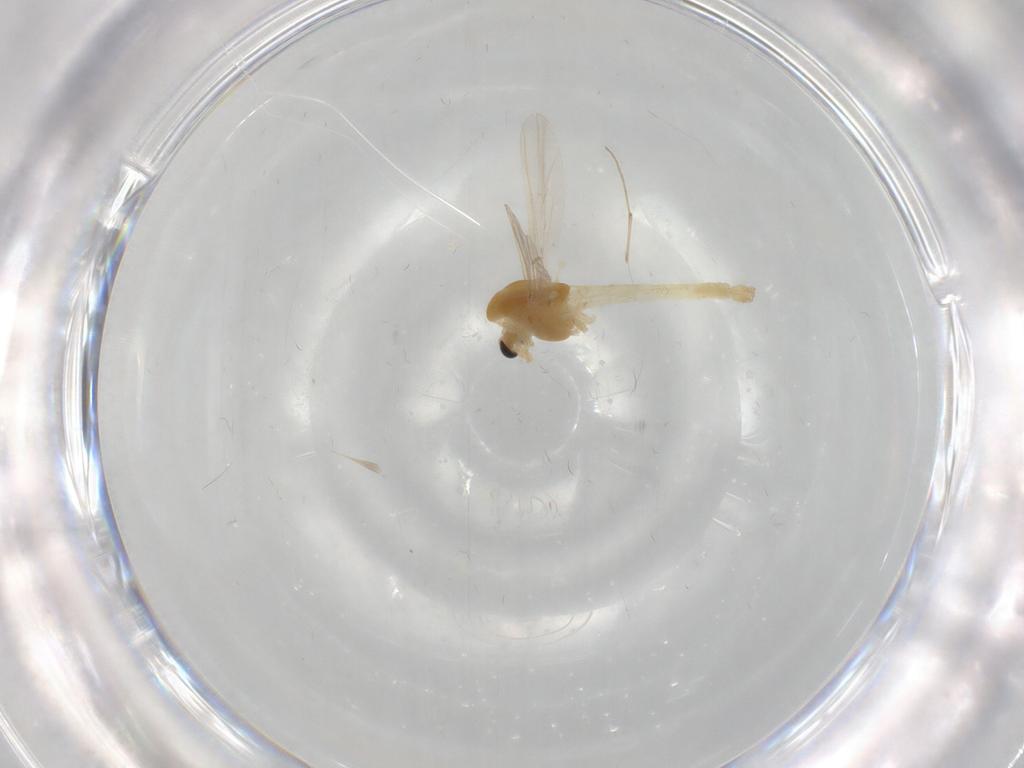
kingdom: Animalia
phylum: Arthropoda
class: Insecta
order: Diptera
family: Chironomidae
